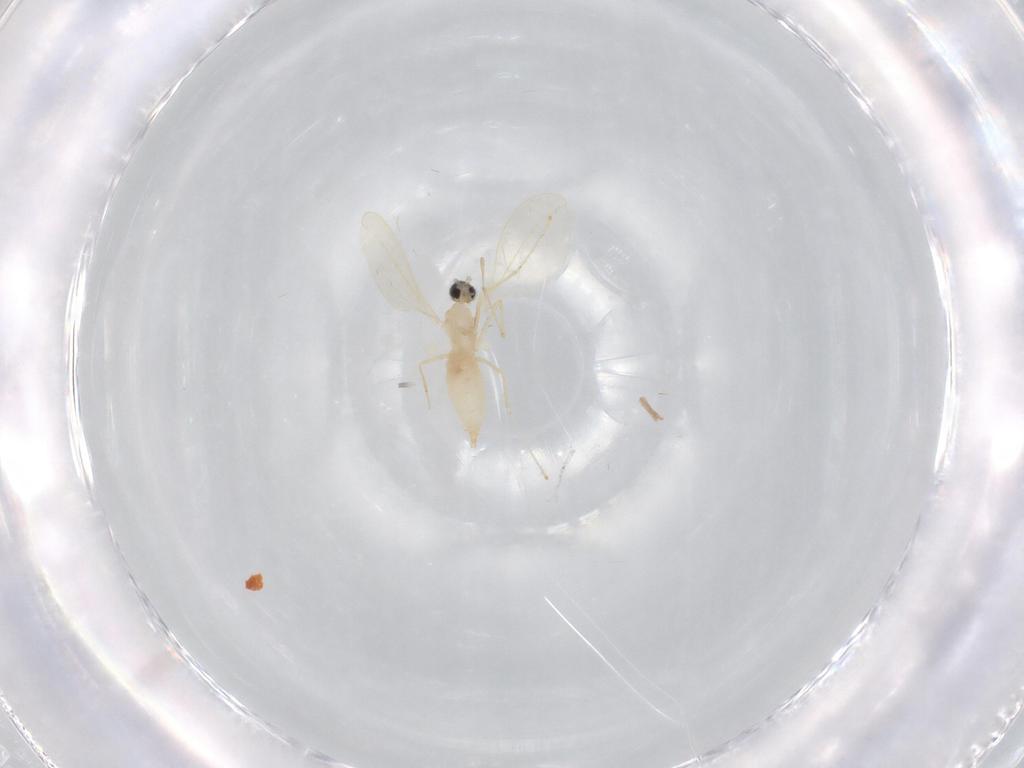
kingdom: Animalia
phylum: Arthropoda
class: Insecta
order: Diptera
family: Cecidomyiidae
